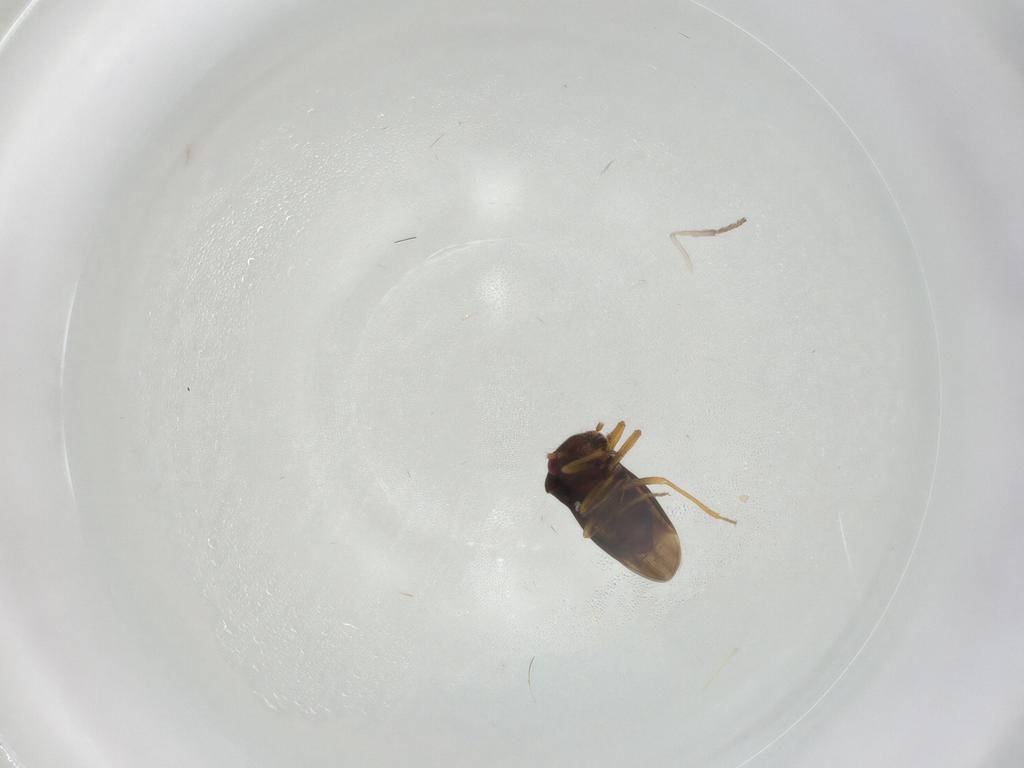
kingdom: Animalia
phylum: Arthropoda
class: Insecta
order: Hemiptera
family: Schizopteridae
